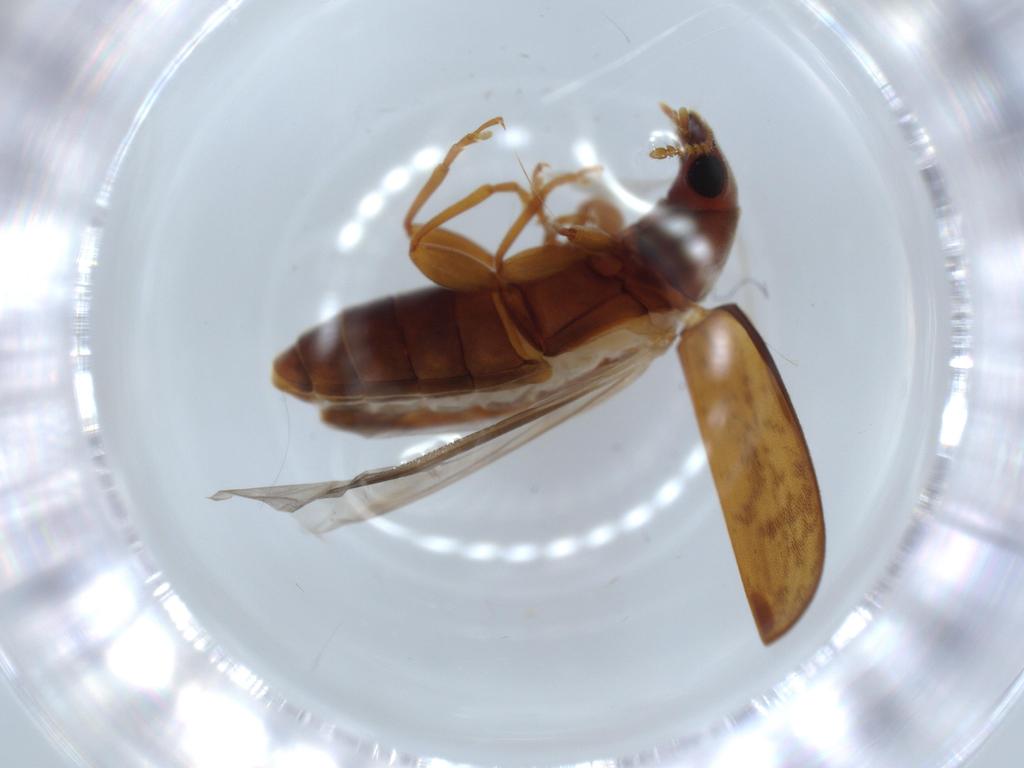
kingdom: Animalia
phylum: Arthropoda
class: Insecta
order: Coleoptera
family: Mycteridae
